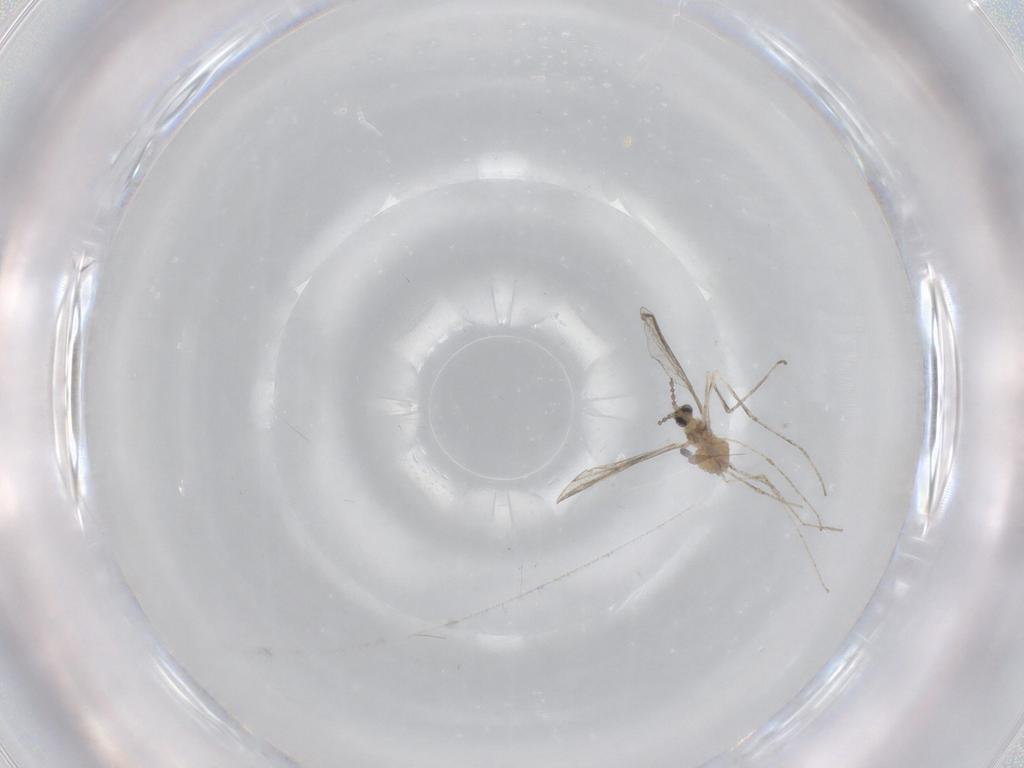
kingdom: Animalia
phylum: Arthropoda
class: Insecta
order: Diptera
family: Cecidomyiidae
